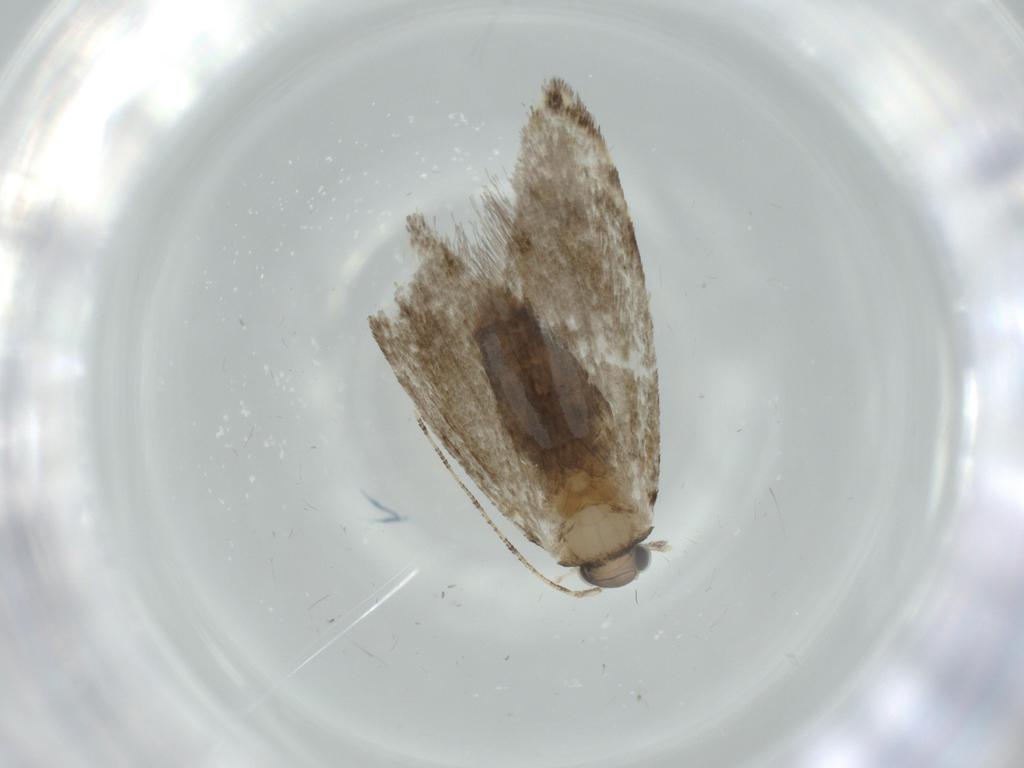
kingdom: Animalia
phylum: Arthropoda
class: Insecta
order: Lepidoptera
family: Tineidae
